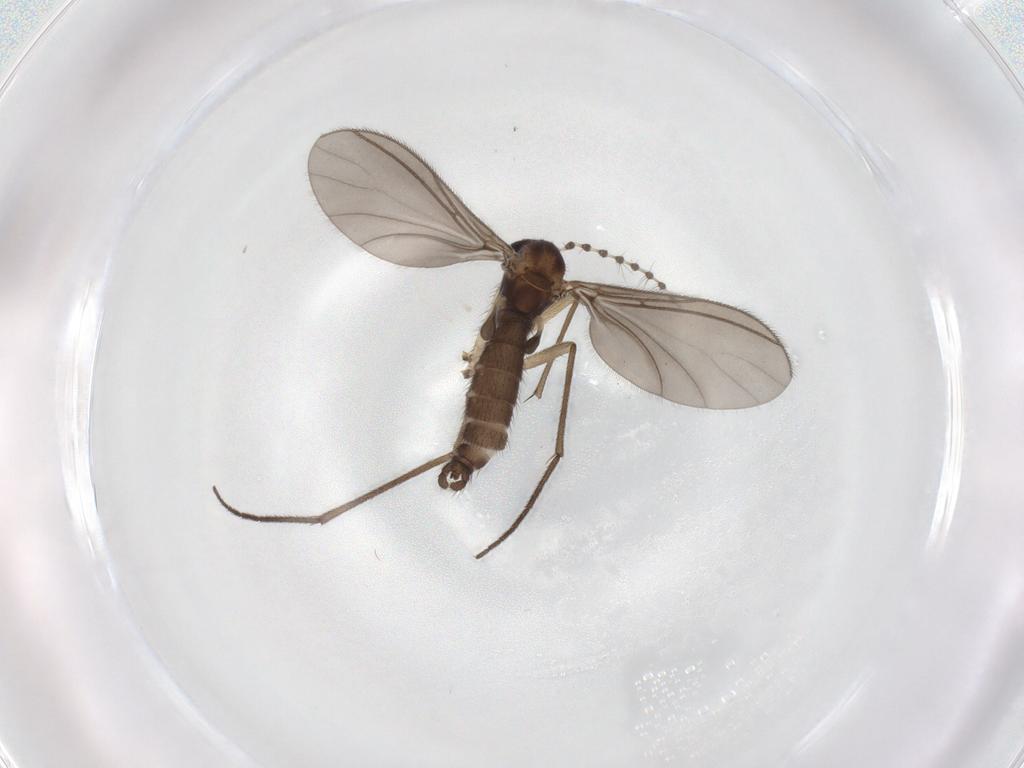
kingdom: Animalia
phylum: Arthropoda
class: Insecta
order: Diptera
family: Sciaridae
